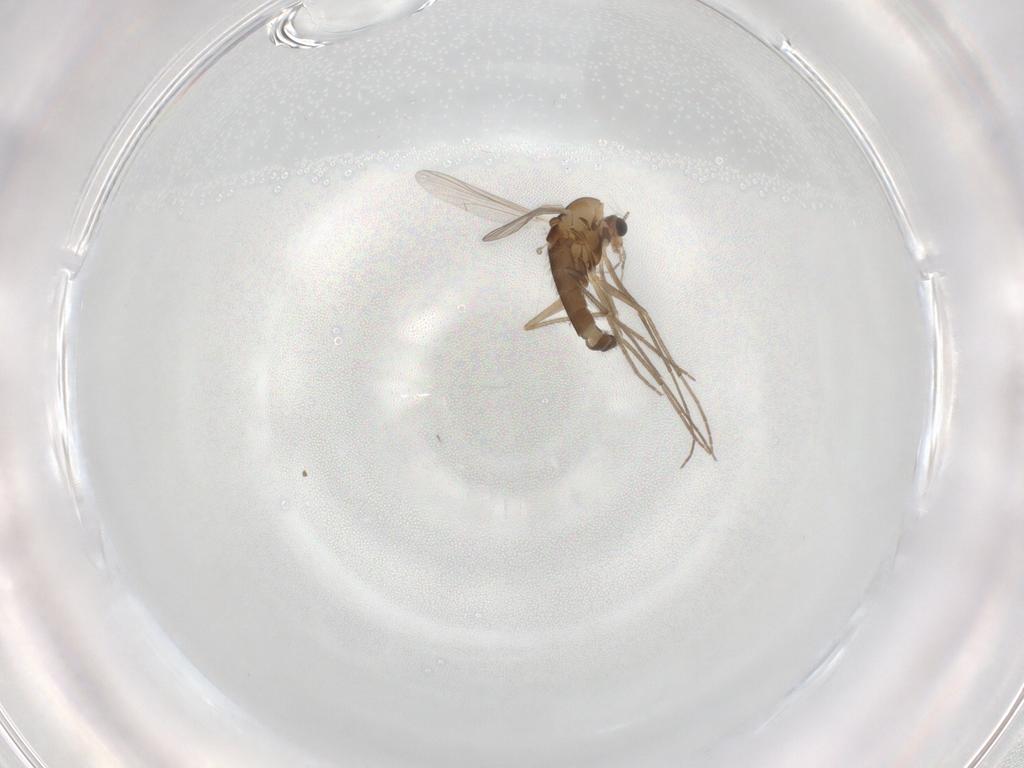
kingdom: Animalia
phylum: Arthropoda
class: Insecta
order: Diptera
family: Chironomidae
